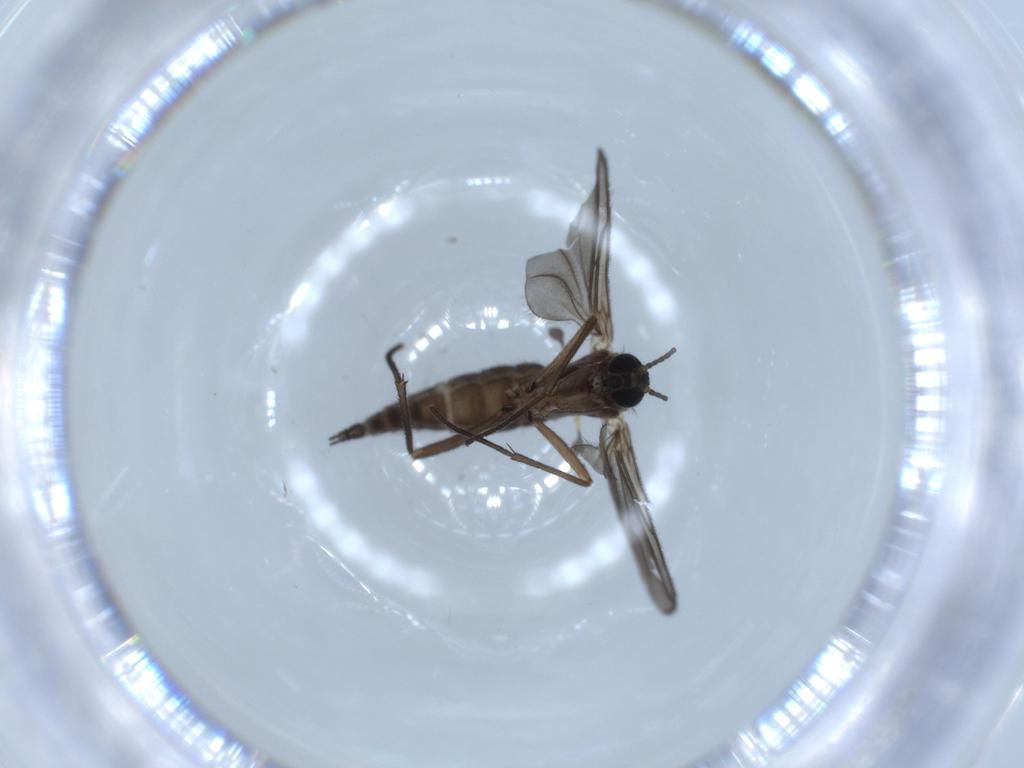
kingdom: Animalia
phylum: Arthropoda
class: Insecta
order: Diptera
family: Sciaridae
